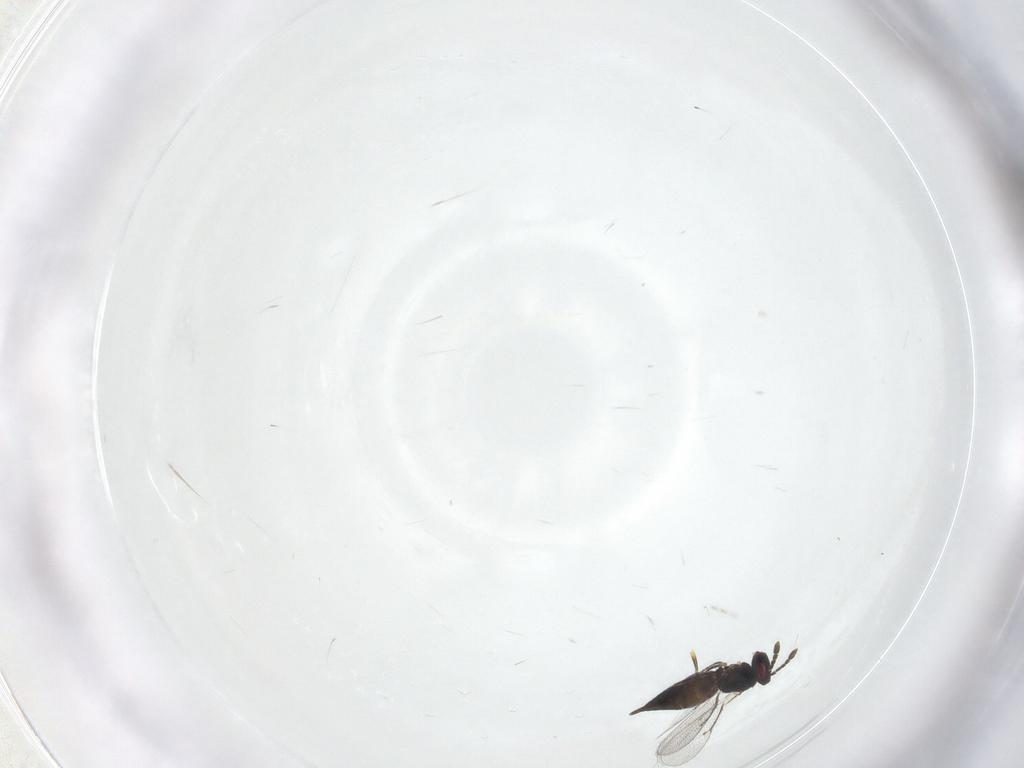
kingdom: Animalia
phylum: Arthropoda
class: Insecta
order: Hymenoptera
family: Eulophidae
